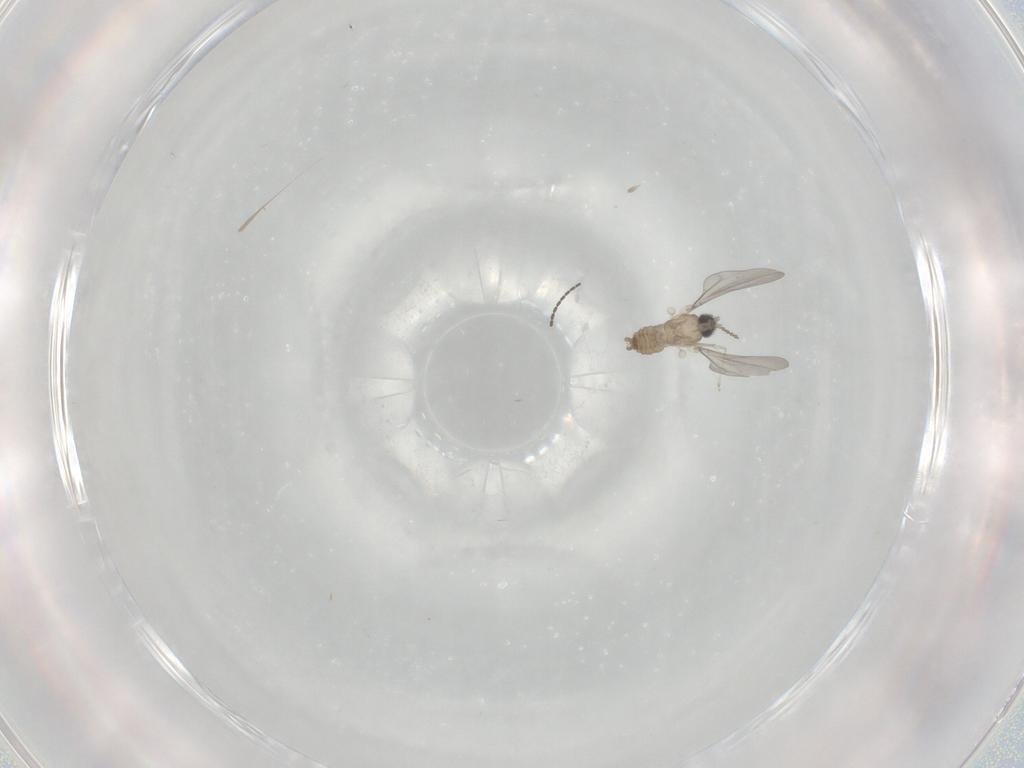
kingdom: Animalia
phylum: Arthropoda
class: Insecta
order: Diptera
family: Cecidomyiidae
